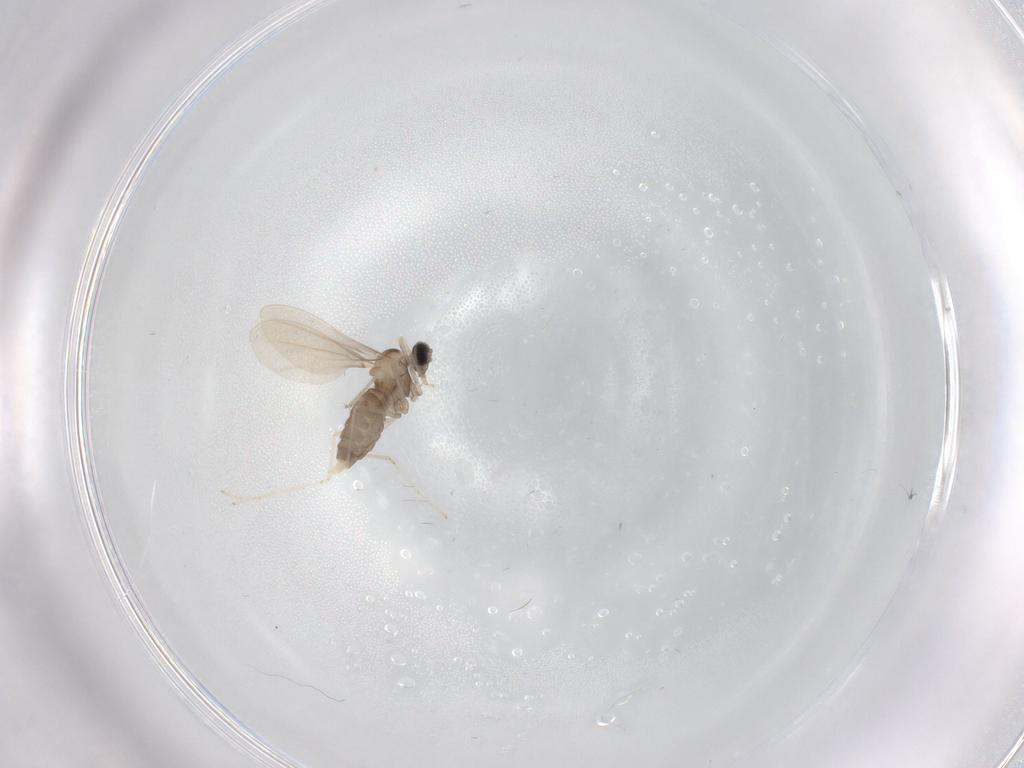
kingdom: Animalia
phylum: Arthropoda
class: Insecta
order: Diptera
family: Cecidomyiidae
